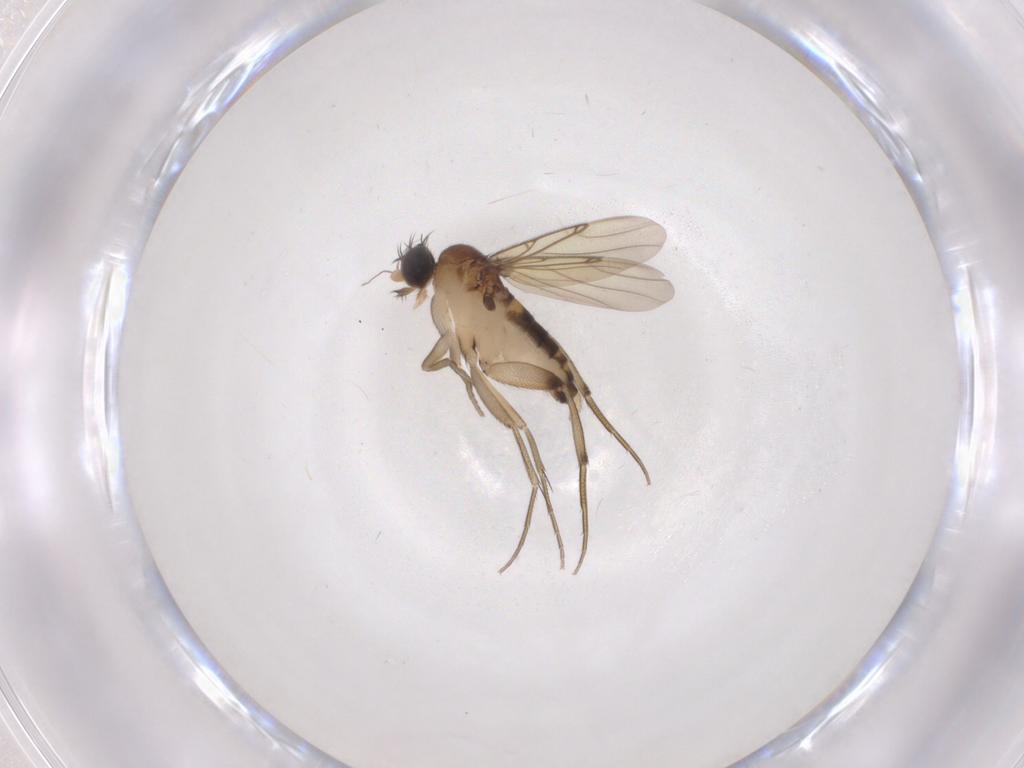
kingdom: Animalia
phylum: Arthropoda
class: Insecta
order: Diptera
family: Phoridae
